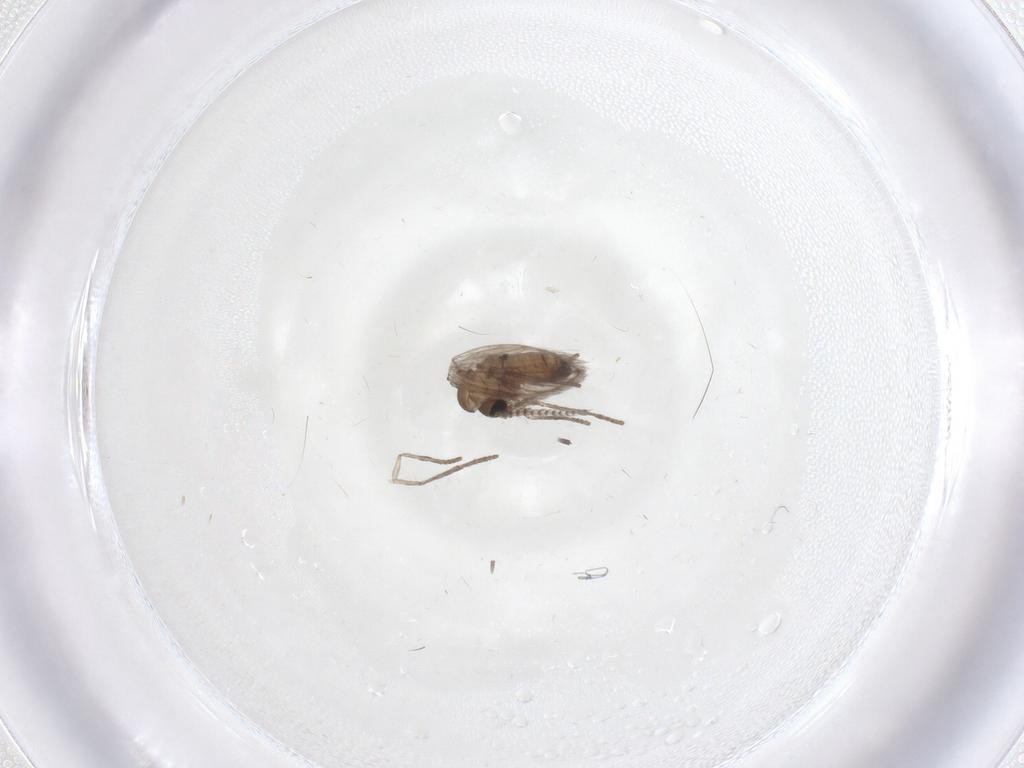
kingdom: Animalia
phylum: Arthropoda
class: Insecta
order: Diptera
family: Psychodidae
